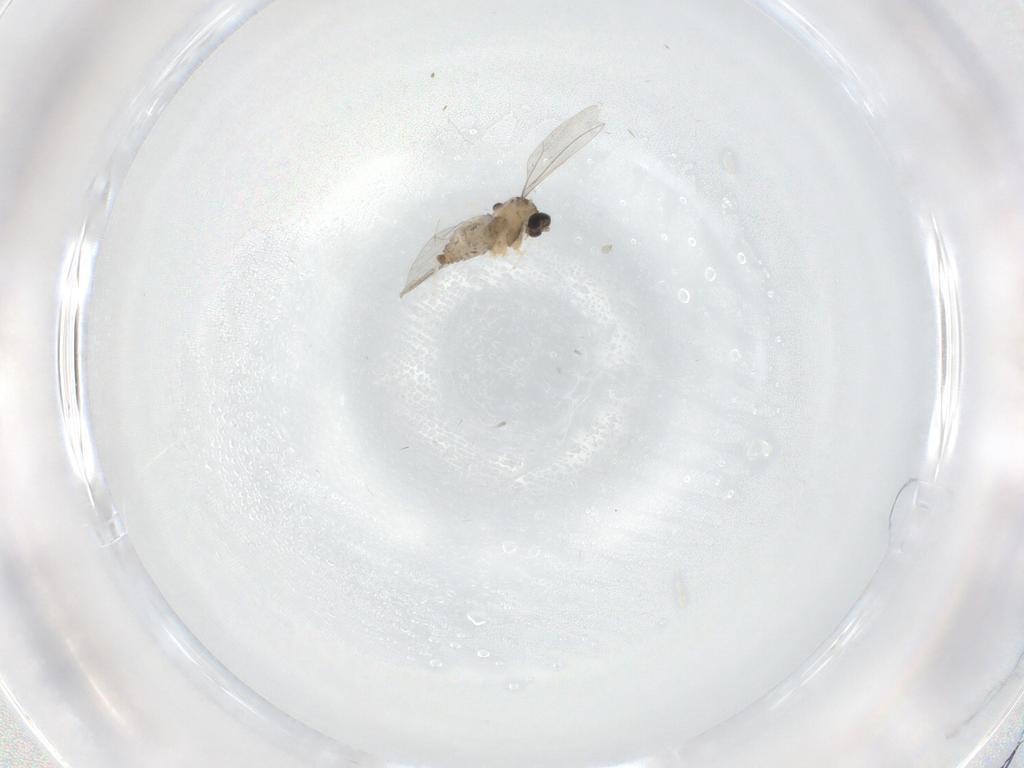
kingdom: Animalia
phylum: Arthropoda
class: Insecta
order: Diptera
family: Cecidomyiidae
